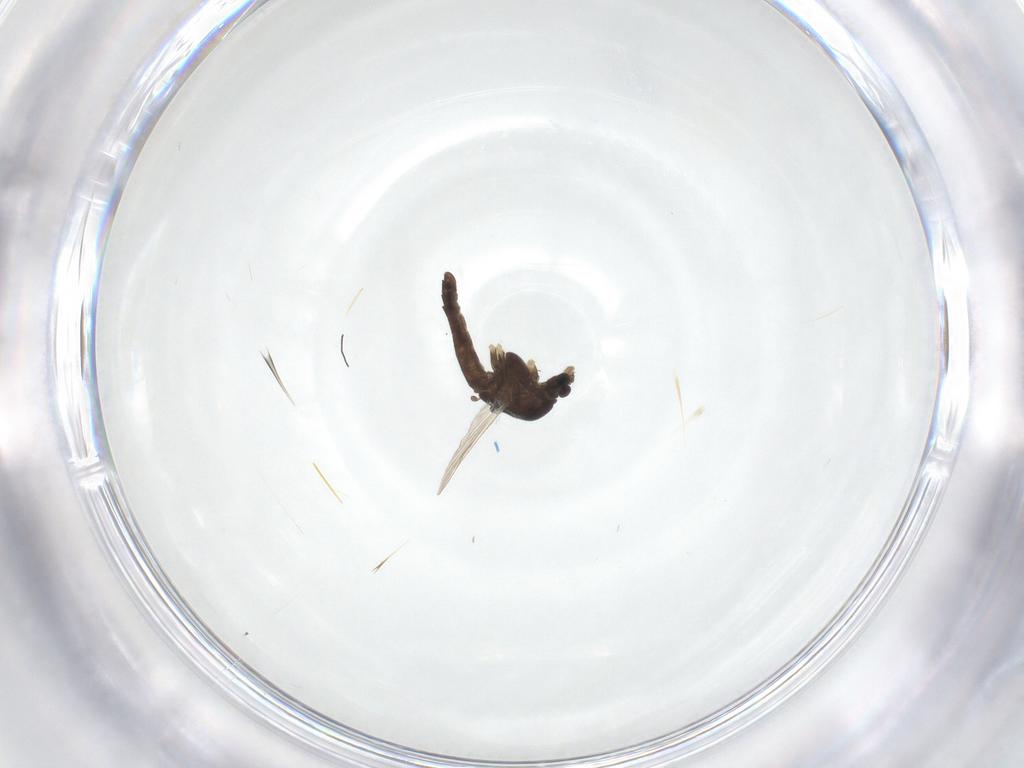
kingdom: Animalia
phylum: Arthropoda
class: Insecta
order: Diptera
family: Chironomidae
